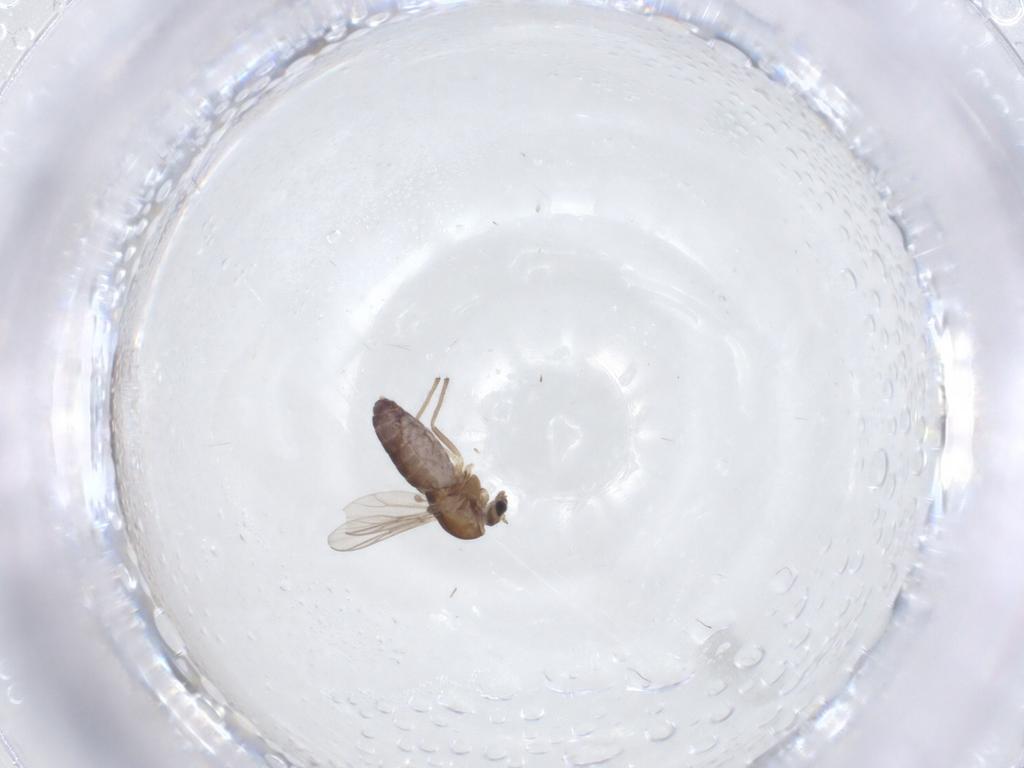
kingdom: Animalia
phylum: Arthropoda
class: Insecta
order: Diptera
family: Chironomidae
